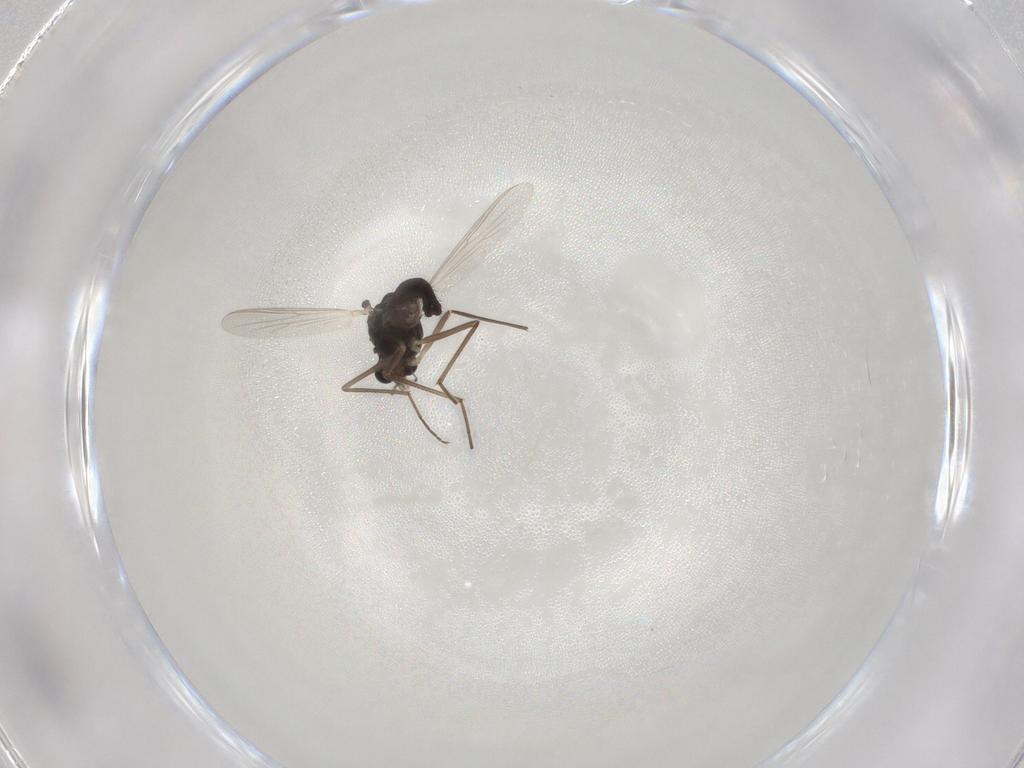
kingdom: Animalia
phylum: Arthropoda
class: Insecta
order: Diptera
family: Chironomidae
